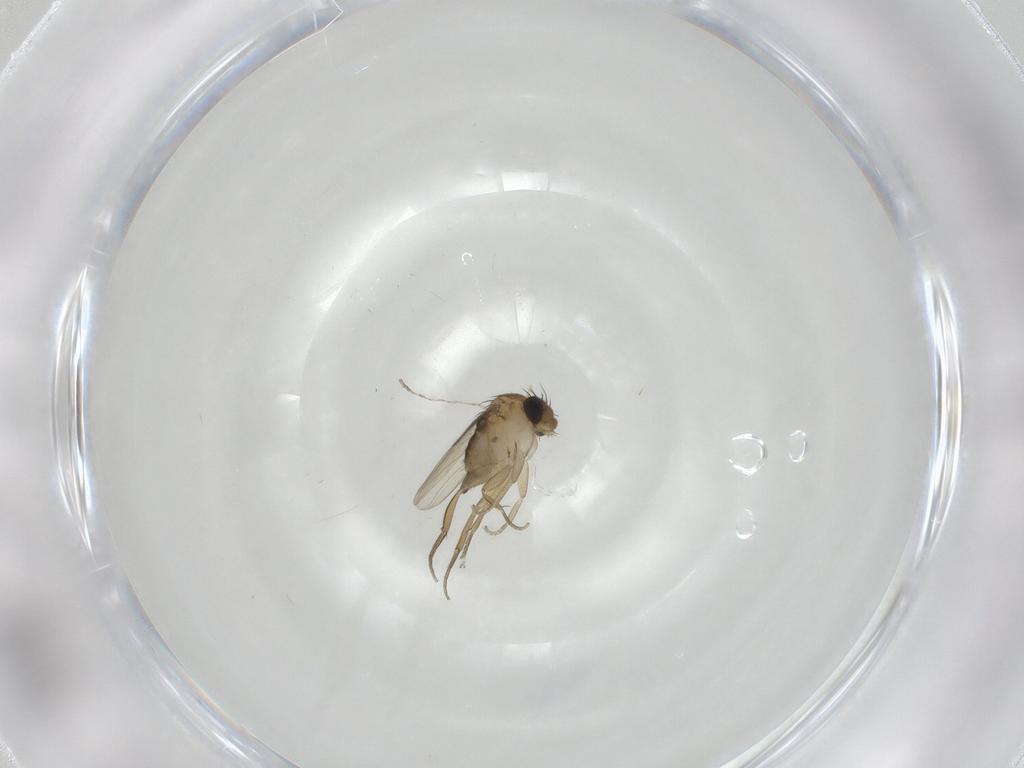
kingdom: Animalia
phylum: Arthropoda
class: Insecta
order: Diptera
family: Cecidomyiidae
